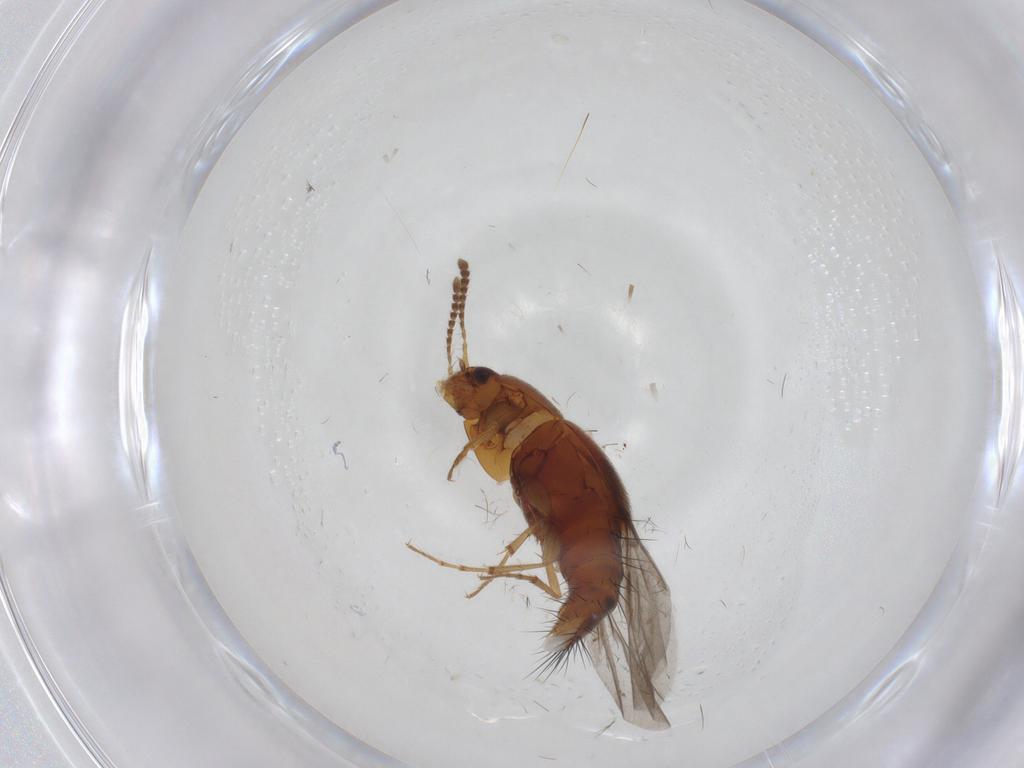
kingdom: Animalia
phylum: Arthropoda
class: Insecta
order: Coleoptera
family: Staphylinidae
